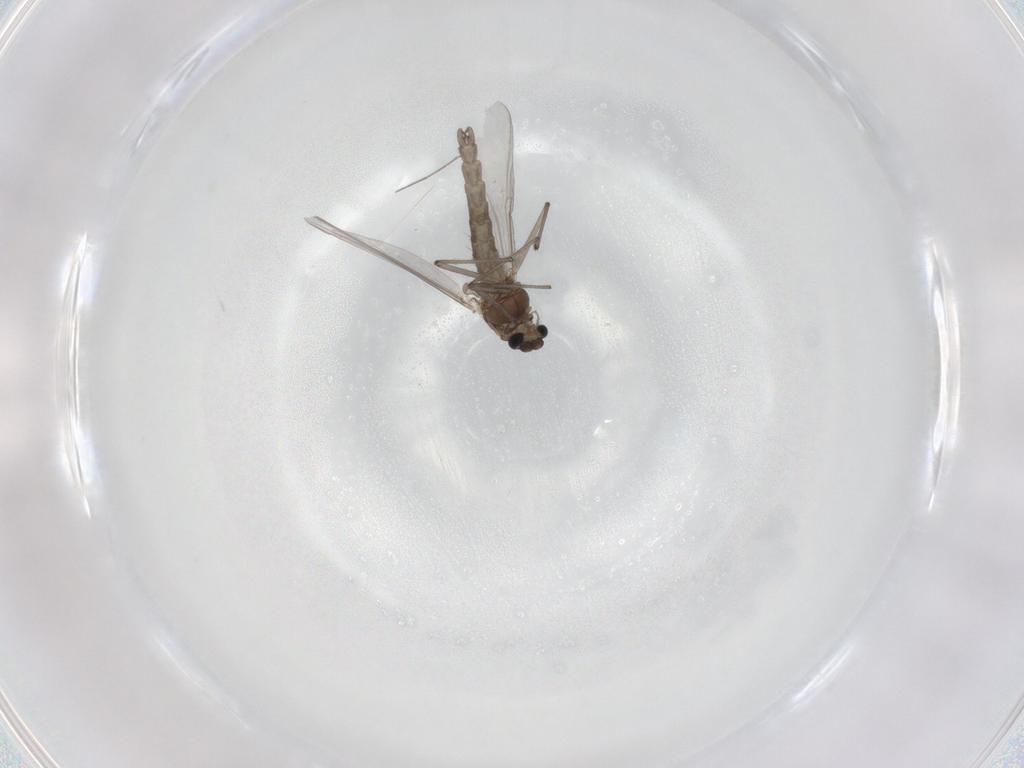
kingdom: Animalia
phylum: Arthropoda
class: Insecta
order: Diptera
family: Chironomidae
